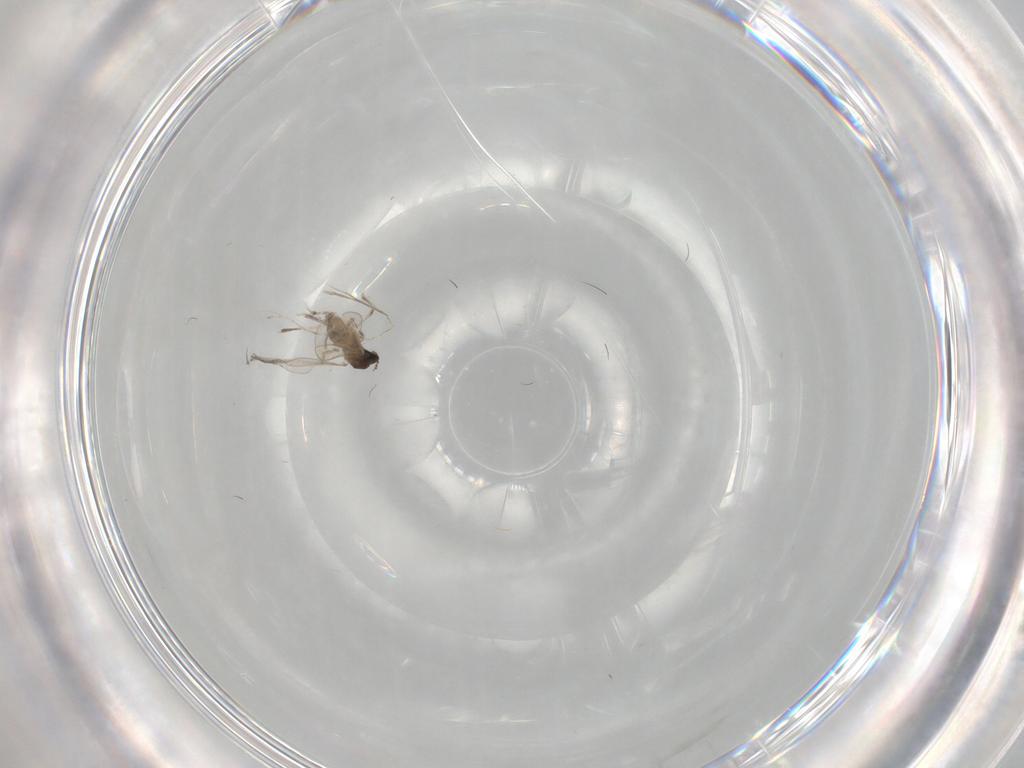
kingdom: Animalia
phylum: Arthropoda
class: Insecta
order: Diptera
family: Cecidomyiidae
